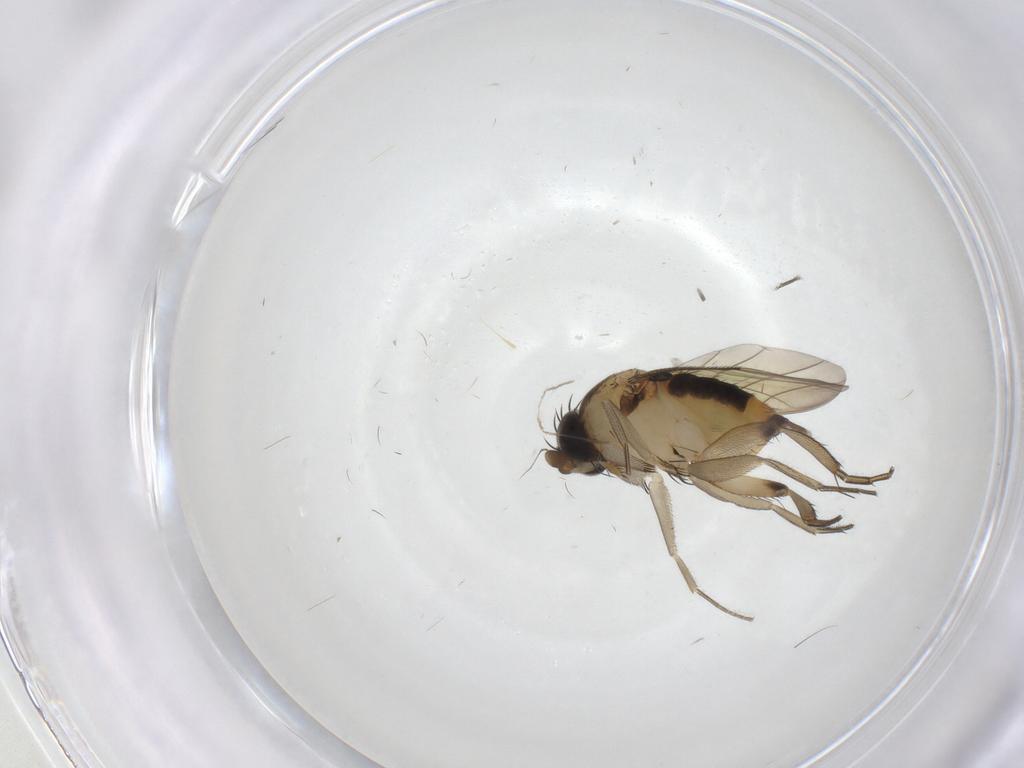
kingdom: Animalia
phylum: Arthropoda
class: Insecta
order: Diptera
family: Phoridae
